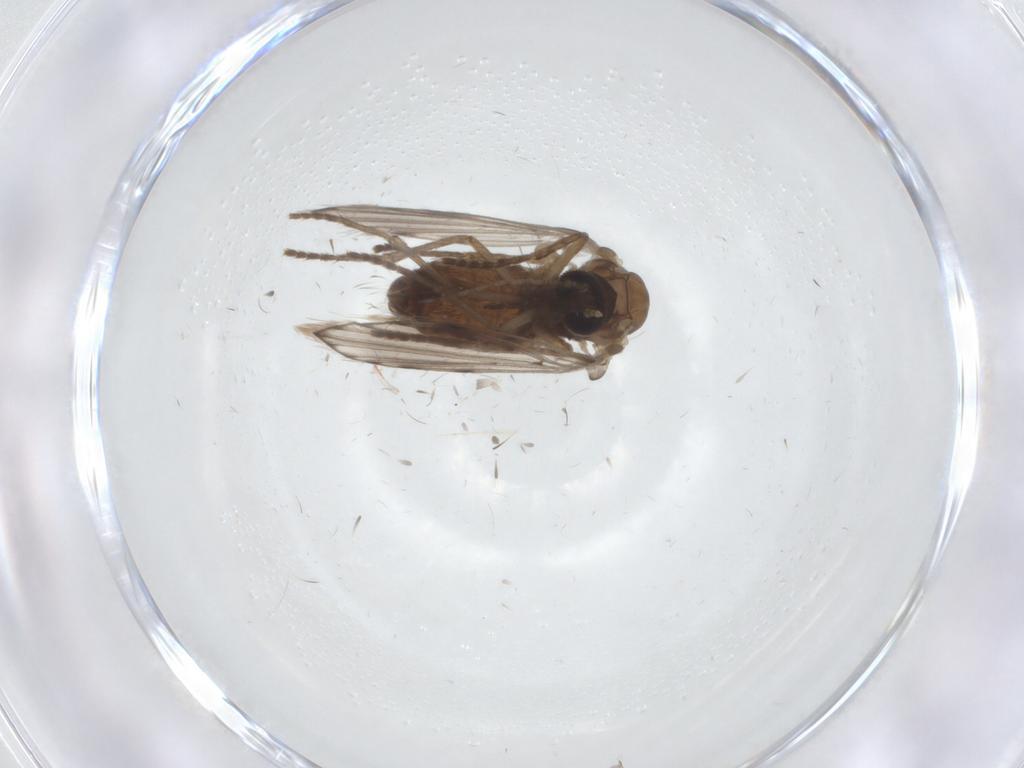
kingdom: Animalia
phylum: Arthropoda
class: Insecta
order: Diptera
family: Psychodidae
